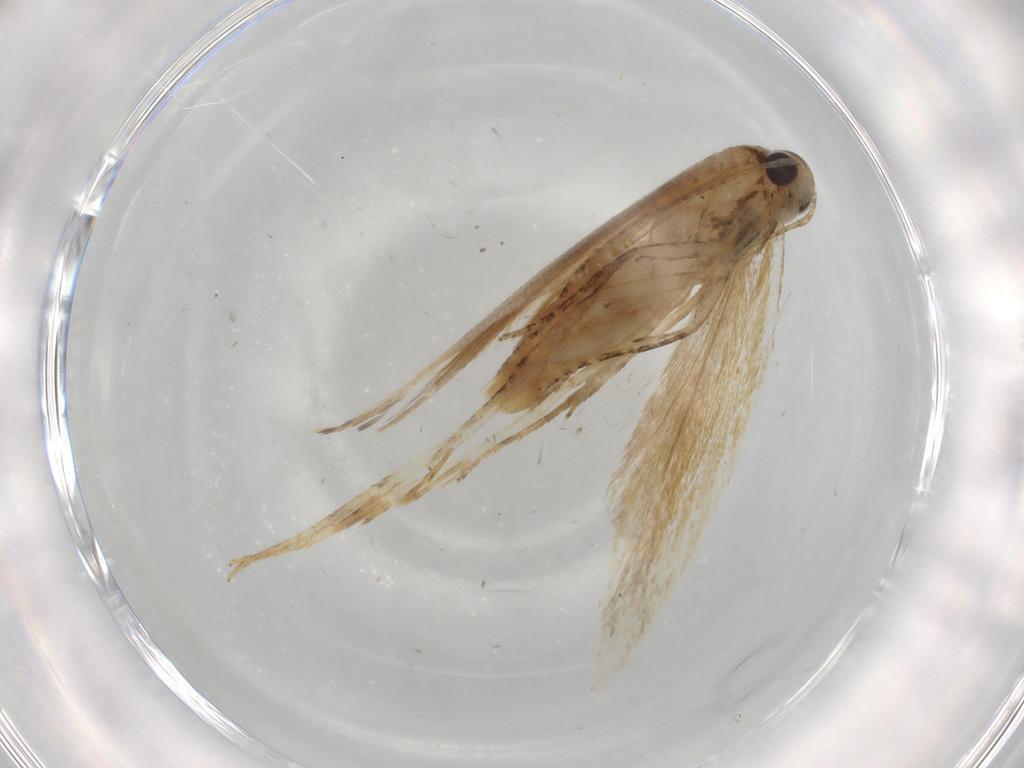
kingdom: Animalia
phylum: Arthropoda
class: Insecta
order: Lepidoptera
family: Gelechiidae
